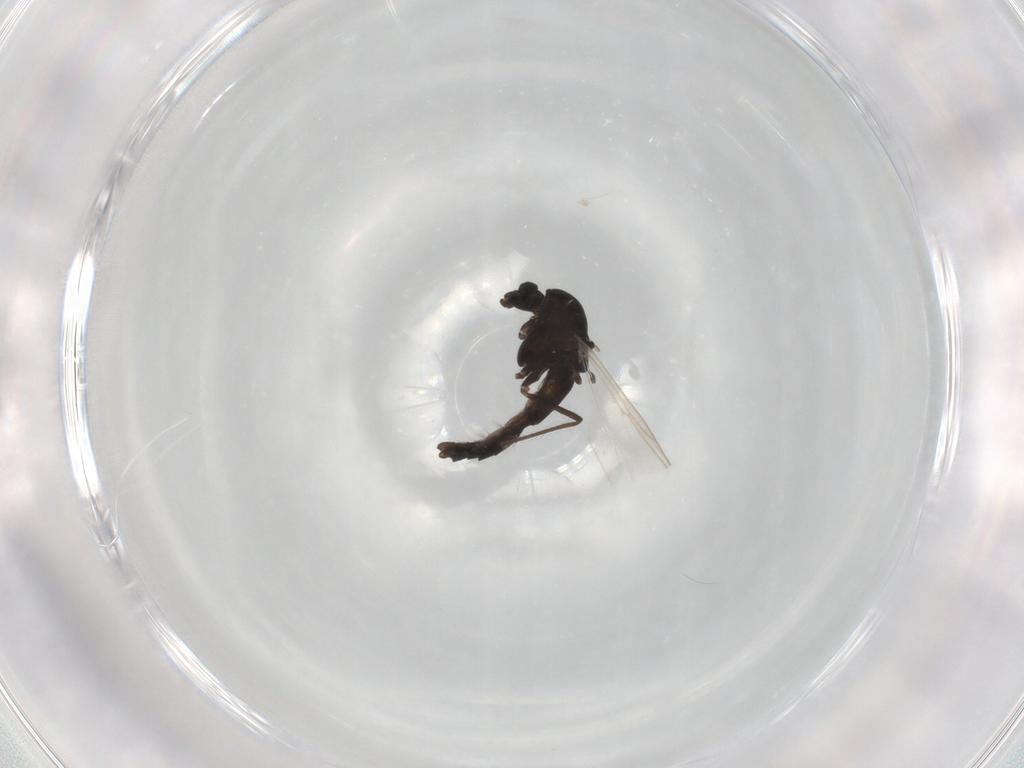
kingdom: Animalia
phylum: Arthropoda
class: Insecta
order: Diptera
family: Chironomidae
